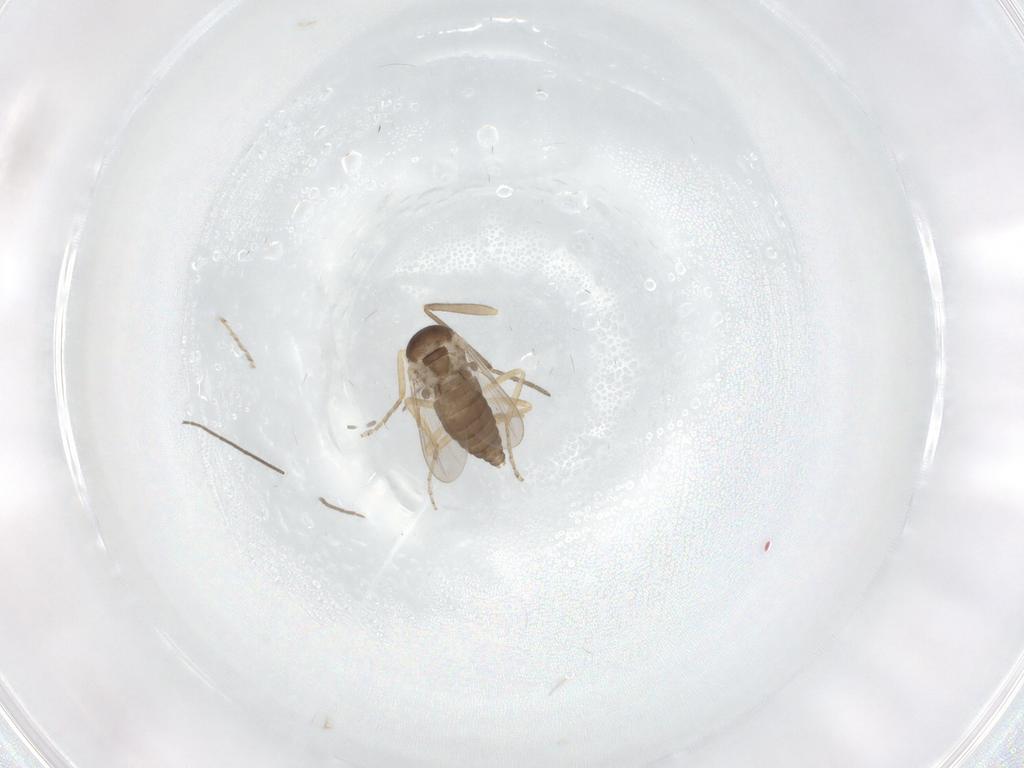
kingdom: Animalia
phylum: Arthropoda
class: Insecta
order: Diptera
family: Ceratopogonidae
